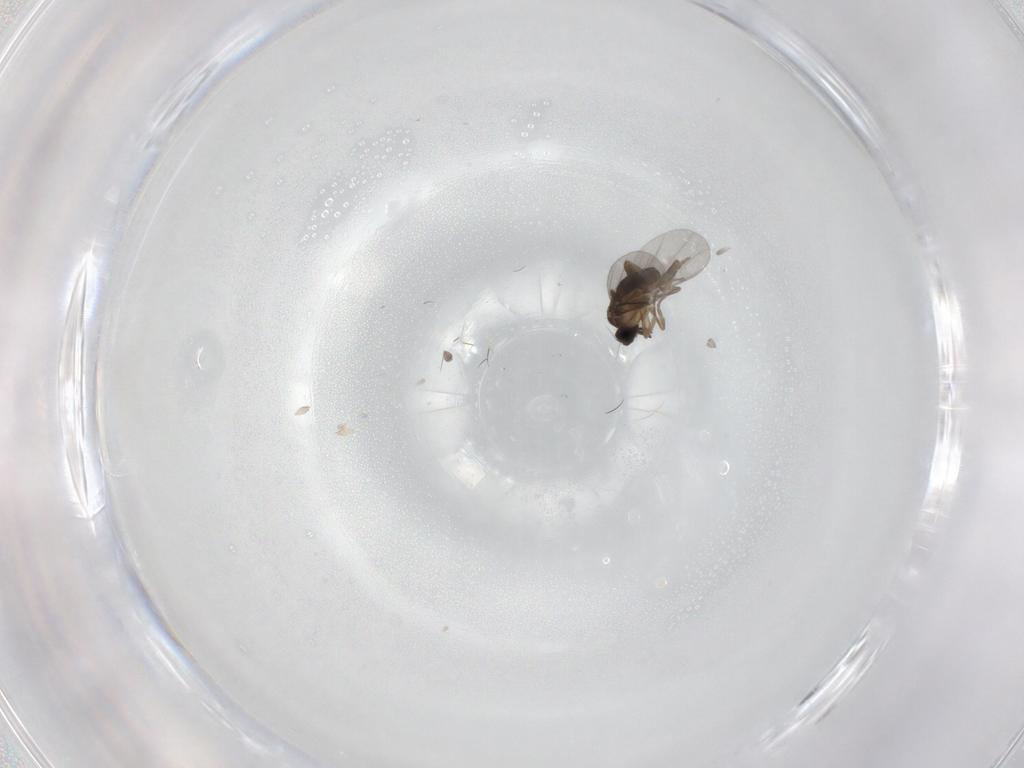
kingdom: Animalia
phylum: Arthropoda
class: Insecta
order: Diptera
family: Cecidomyiidae
